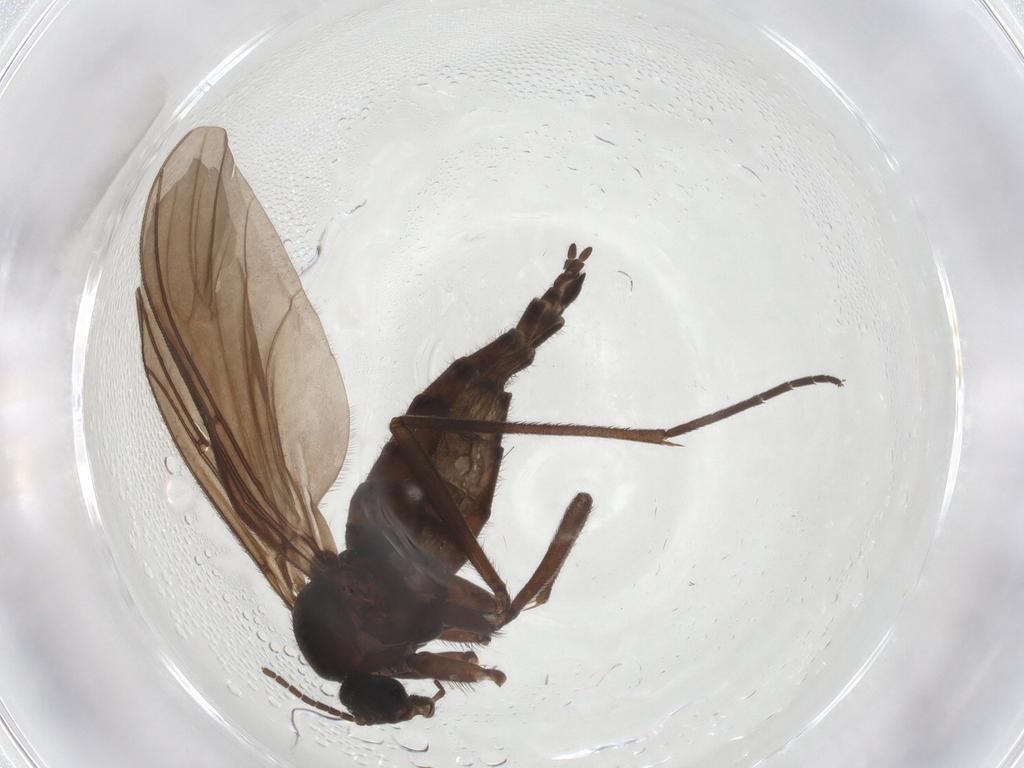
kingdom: Animalia
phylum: Arthropoda
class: Insecta
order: Diptera
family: Sciaridae
